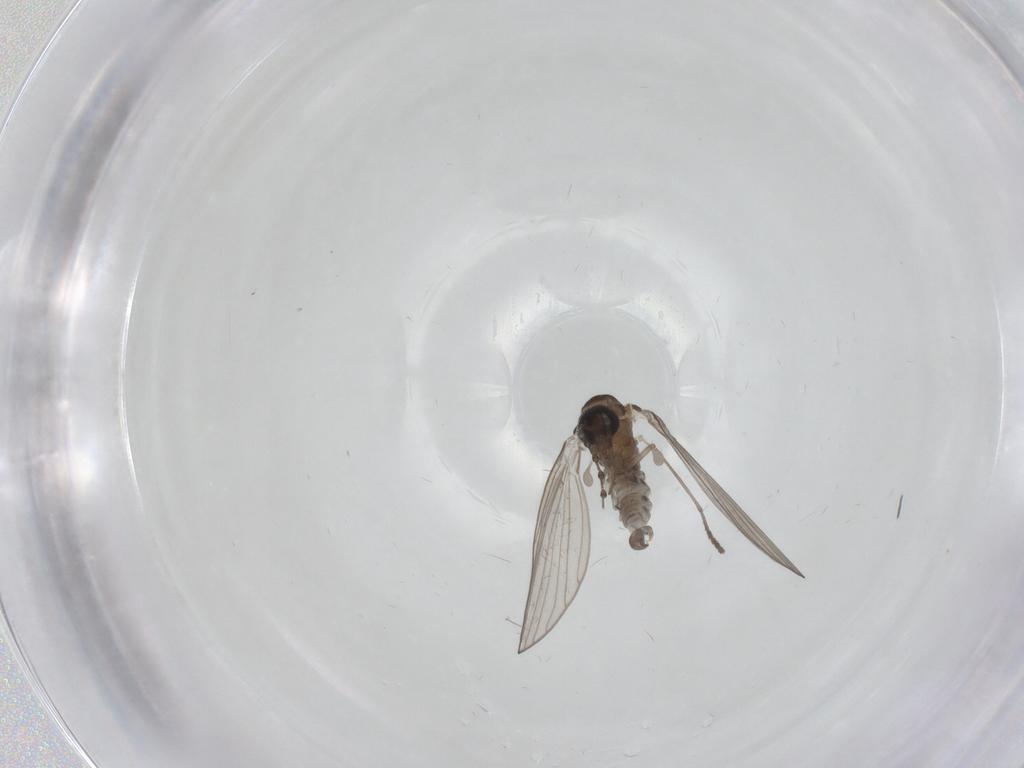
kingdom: Animalia
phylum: Arthropoda
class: Insecta
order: Diptera
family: Psychodidae
